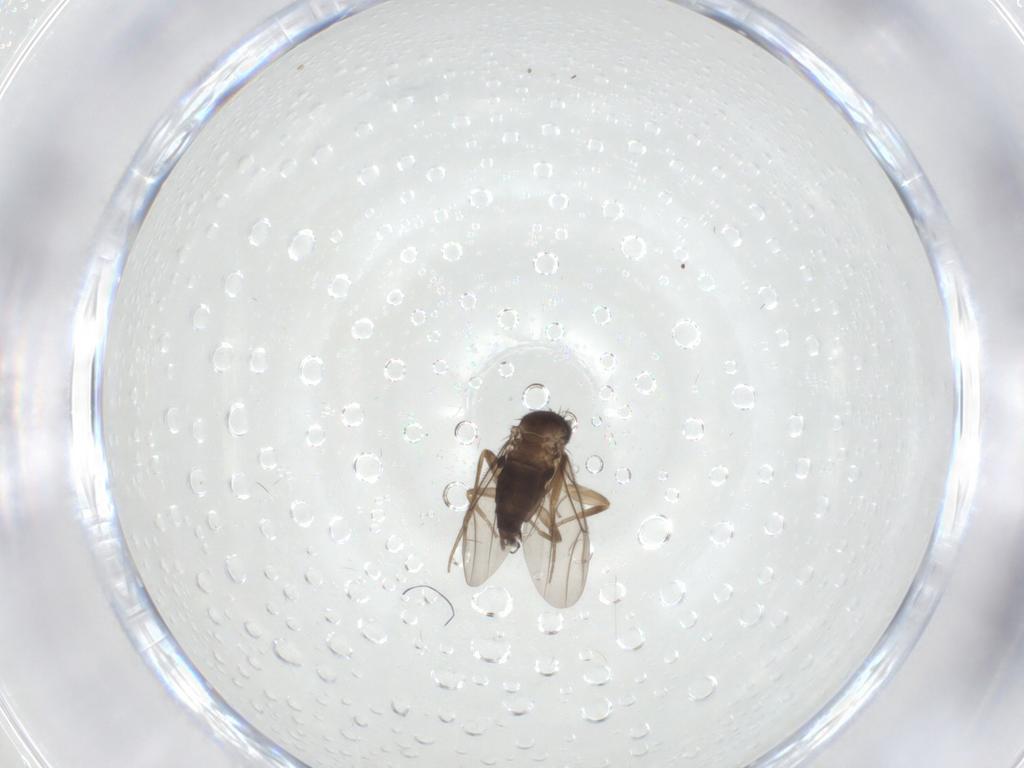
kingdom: Animalia
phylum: Arthropoda
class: Insecta
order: Diptera
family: Phoridae
